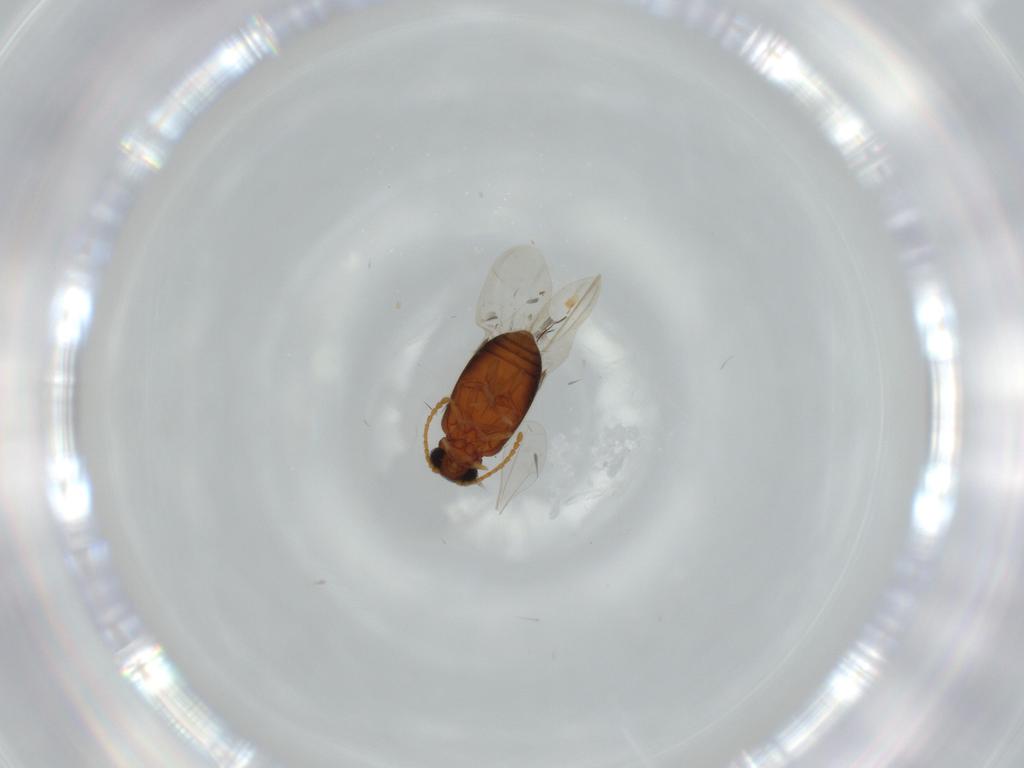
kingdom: Animalia
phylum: Arthropoda
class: Insecta
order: Coleoptera
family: Aderidae
